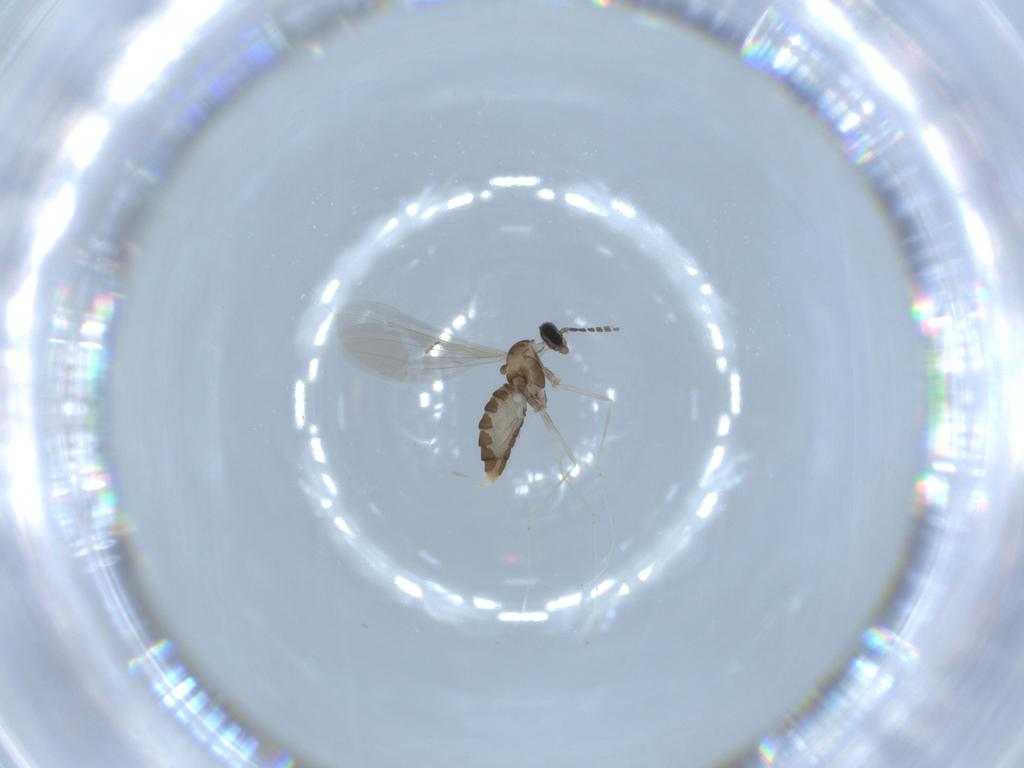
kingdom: Animalia
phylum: Arthropoda
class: Insecta
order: Diptera
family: Cecidomyiidae
